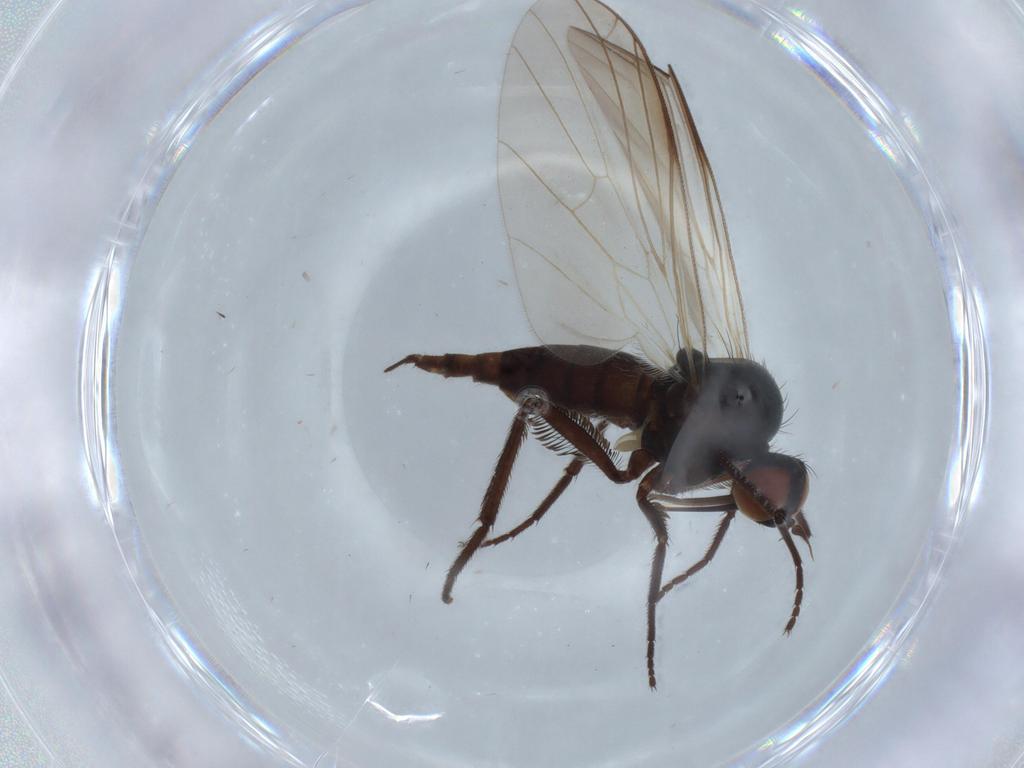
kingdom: Animalia
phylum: Arthropoda
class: Insecta
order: Diptera
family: Empididae
